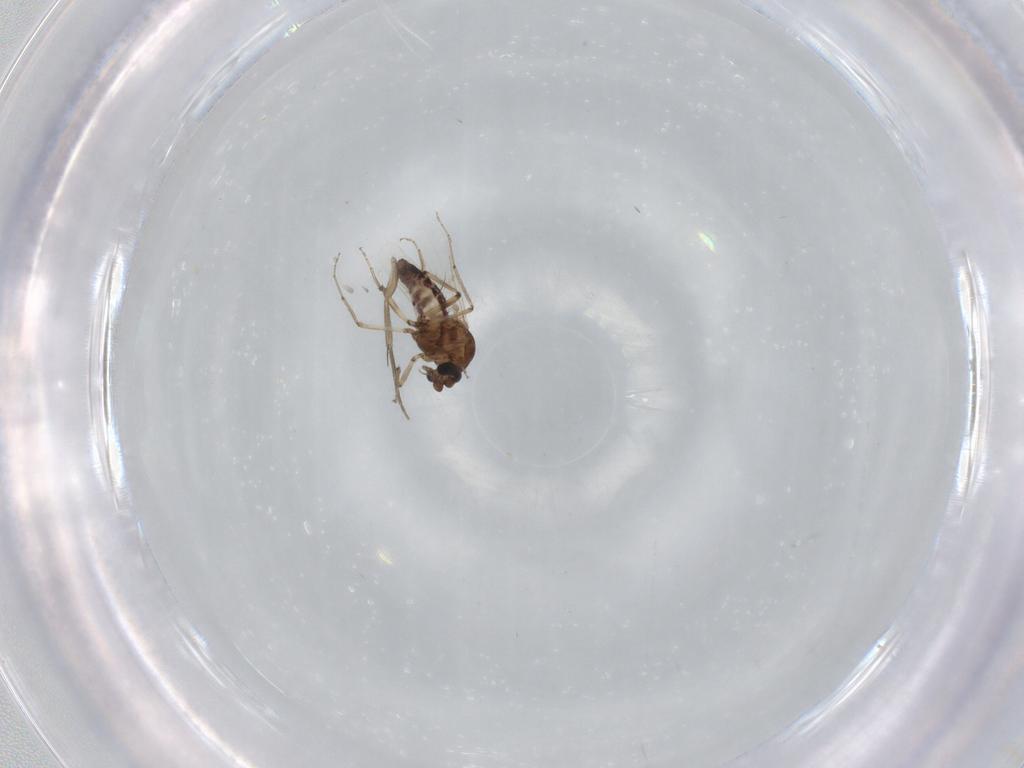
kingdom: Animalia
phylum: Arthropoda
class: Insecta
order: Diptera
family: Ceratopogonidae
